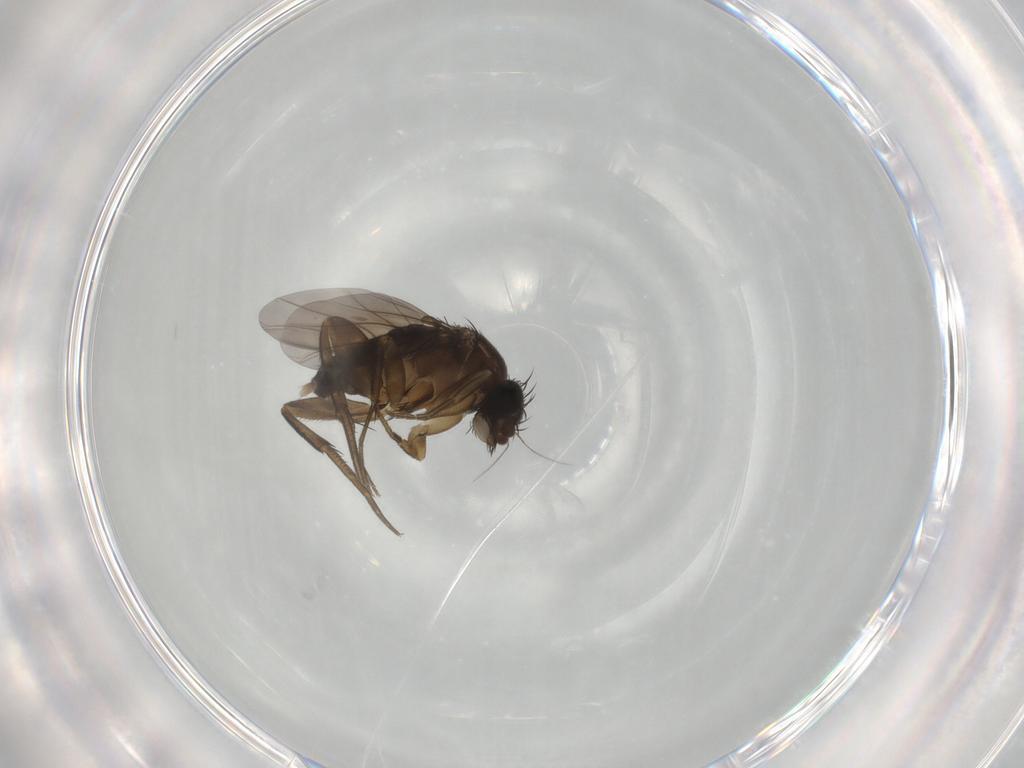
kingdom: Animalia
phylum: Arthropoda
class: Insecta
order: Diptera
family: Phoridae
